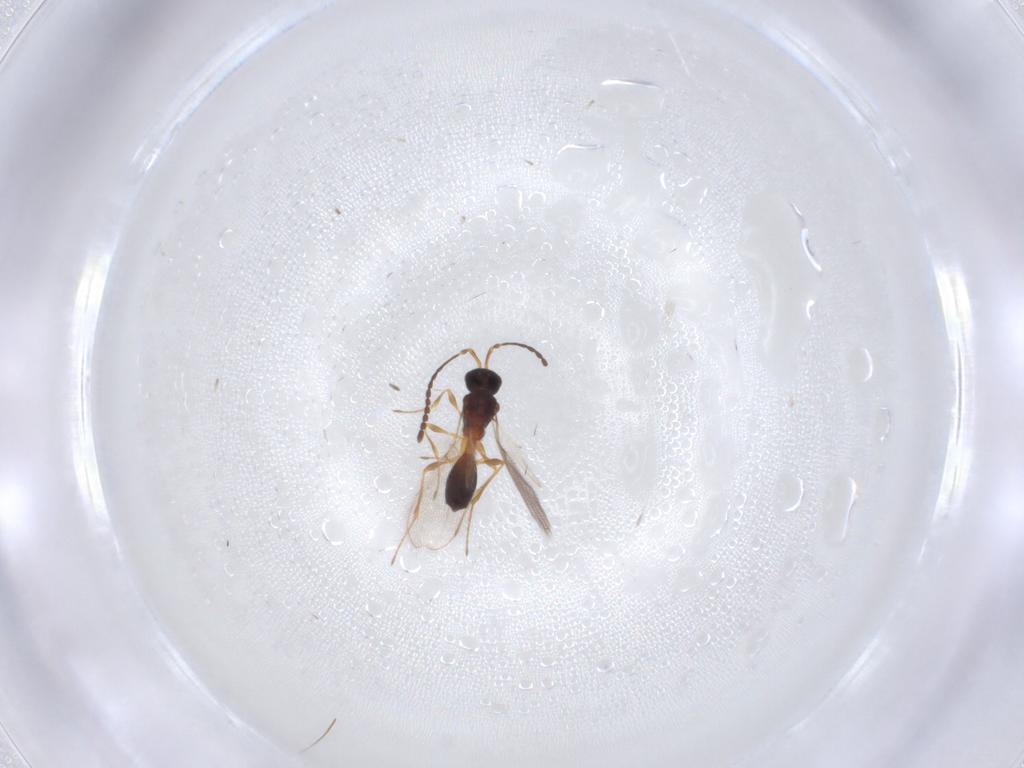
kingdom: Animalia
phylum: Arthropoda
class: Insecta
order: Hymenoptera
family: Diapriidae
